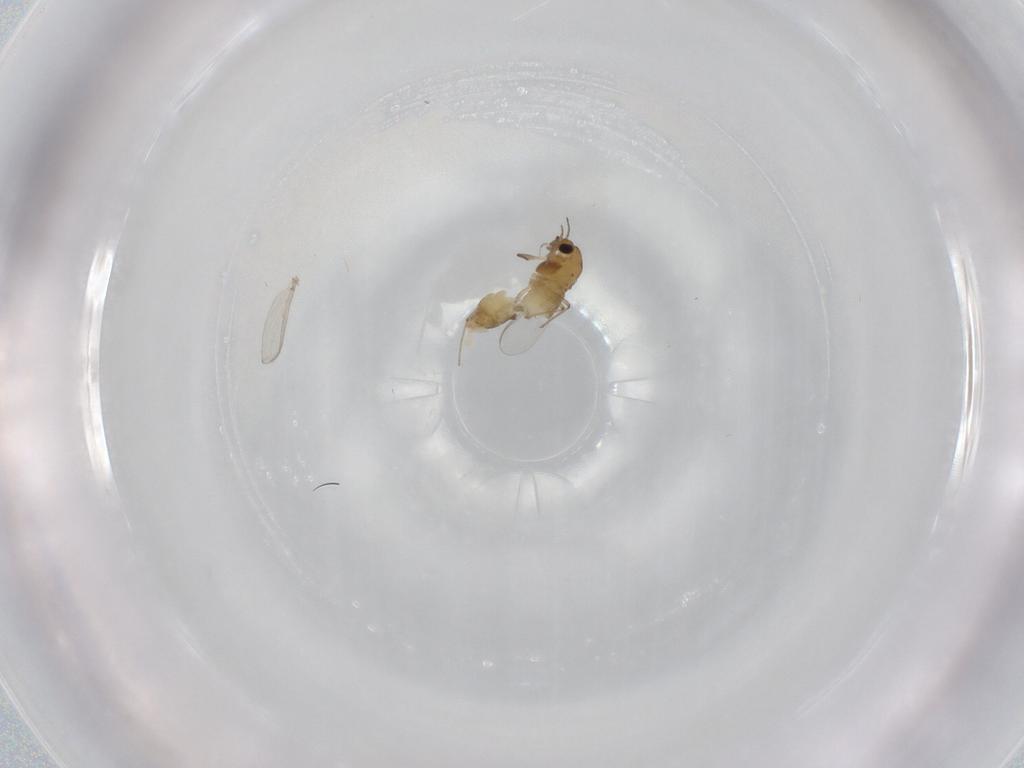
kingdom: Animalia
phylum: Arthropoda
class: Insecta
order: Diptera
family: Chironomidae
